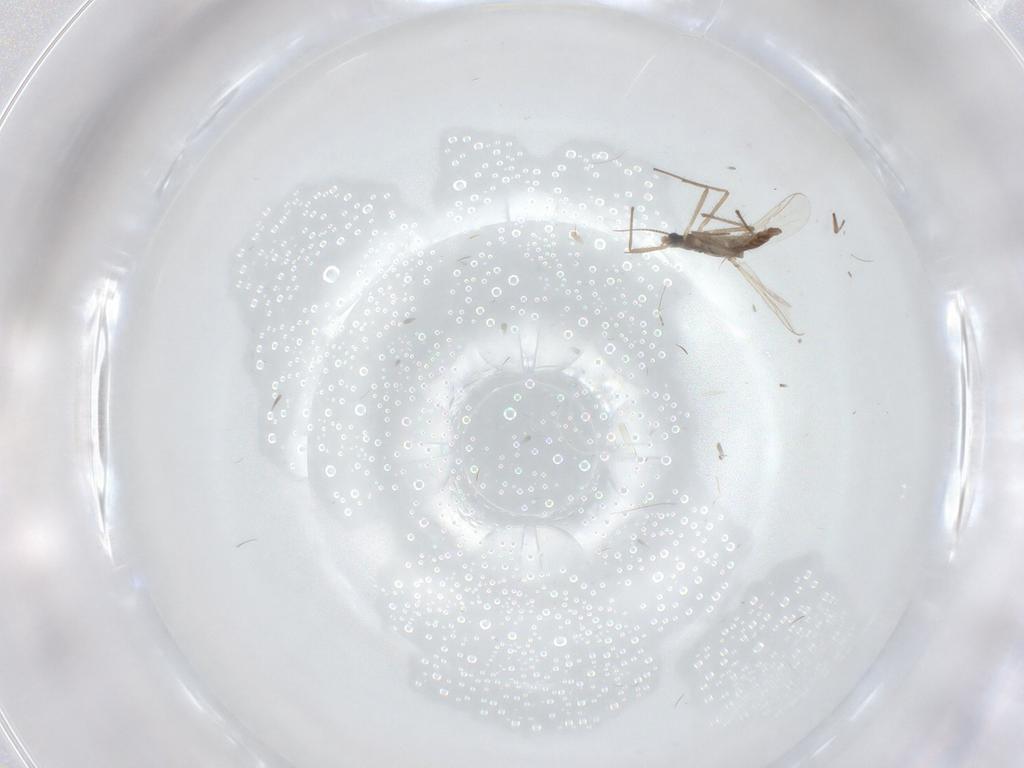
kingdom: Animalia
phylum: Arthropoda
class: Insecta
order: Diptera
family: Chironomidae
